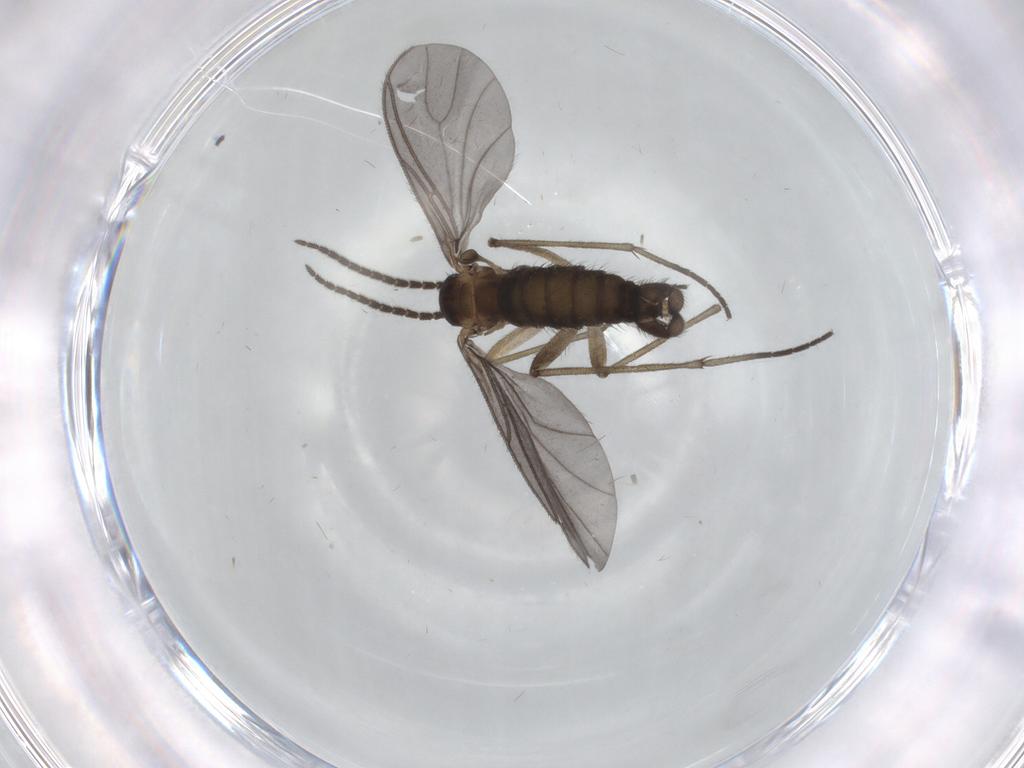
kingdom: Animalia
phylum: Arthropoda
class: Insecta
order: Diptera
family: Sciaridae
